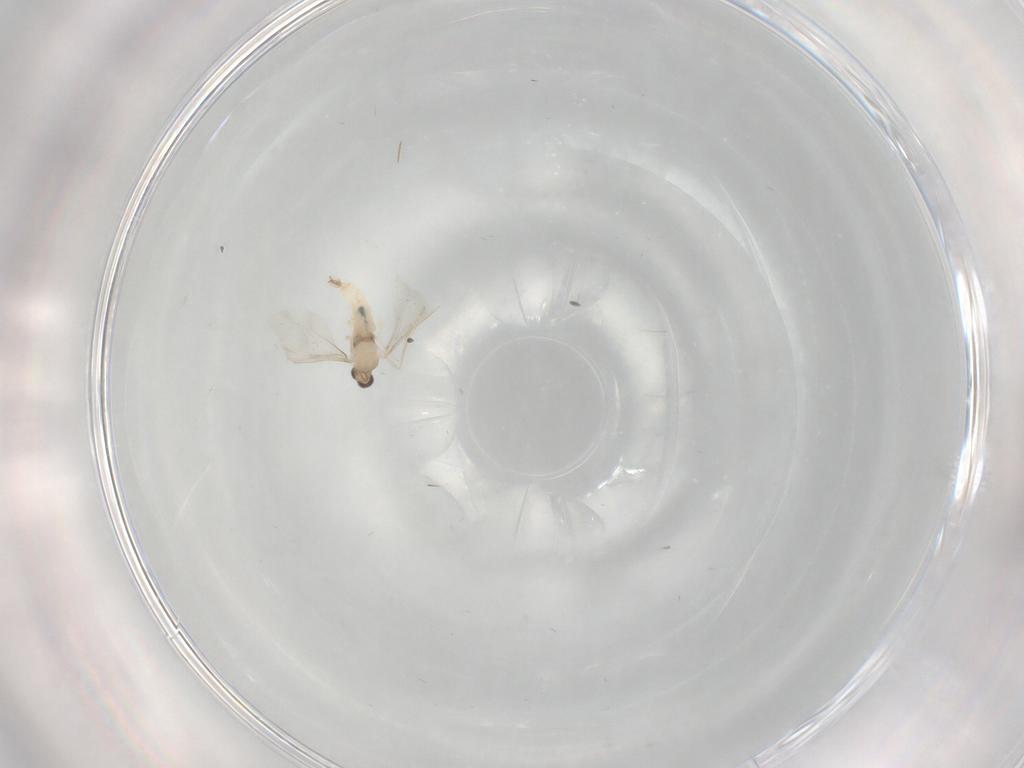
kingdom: Animalia
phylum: Arthropoda
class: Insecta
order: Diptera
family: Cecidomyiidae
